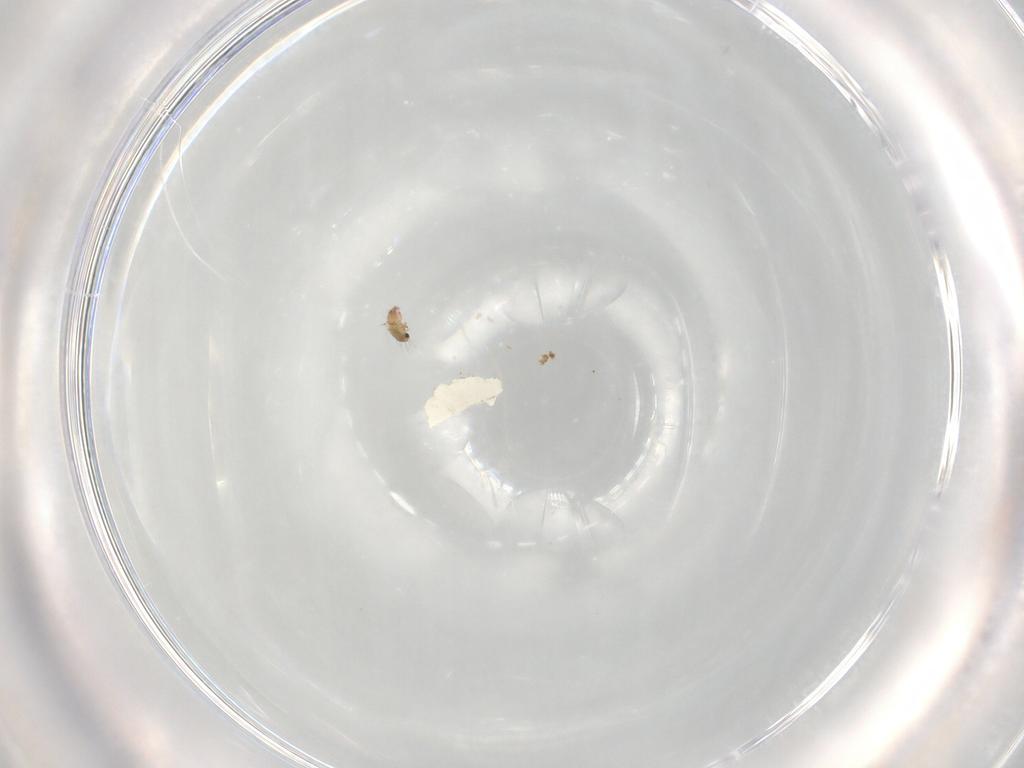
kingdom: Animalia
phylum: Arthropoda
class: Arachnida
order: Sarcoptiformes
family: Humerobatidae
